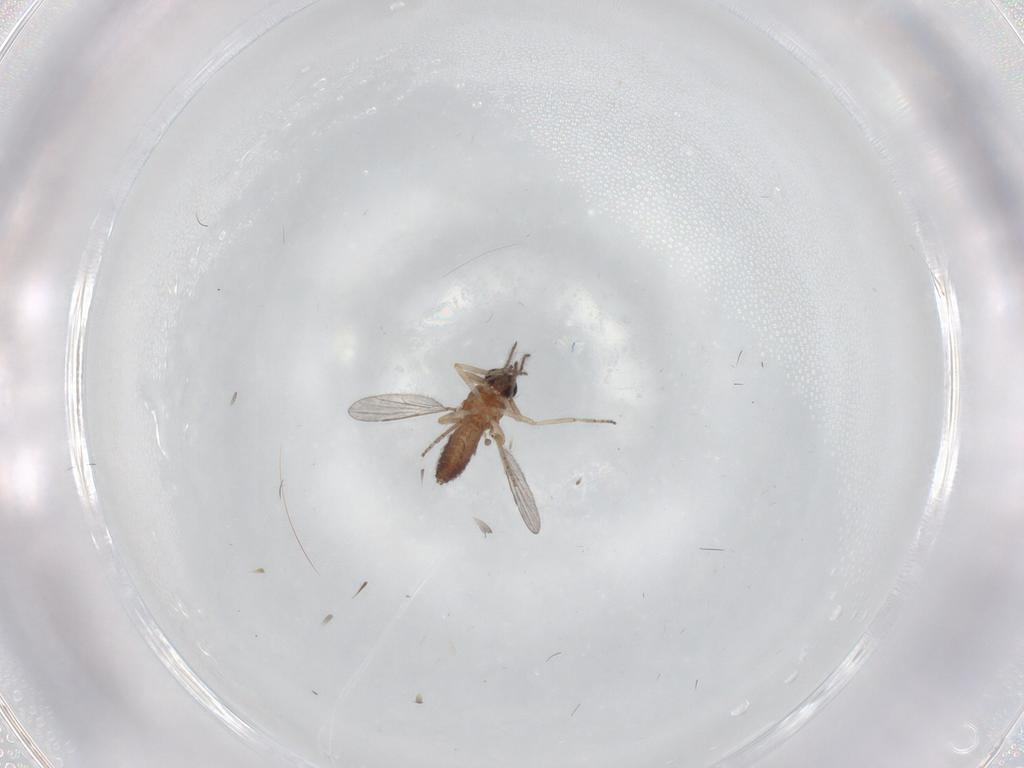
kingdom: Animalia
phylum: Arthropoda
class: Insecta
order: Diptera
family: Ceratopogonidae
